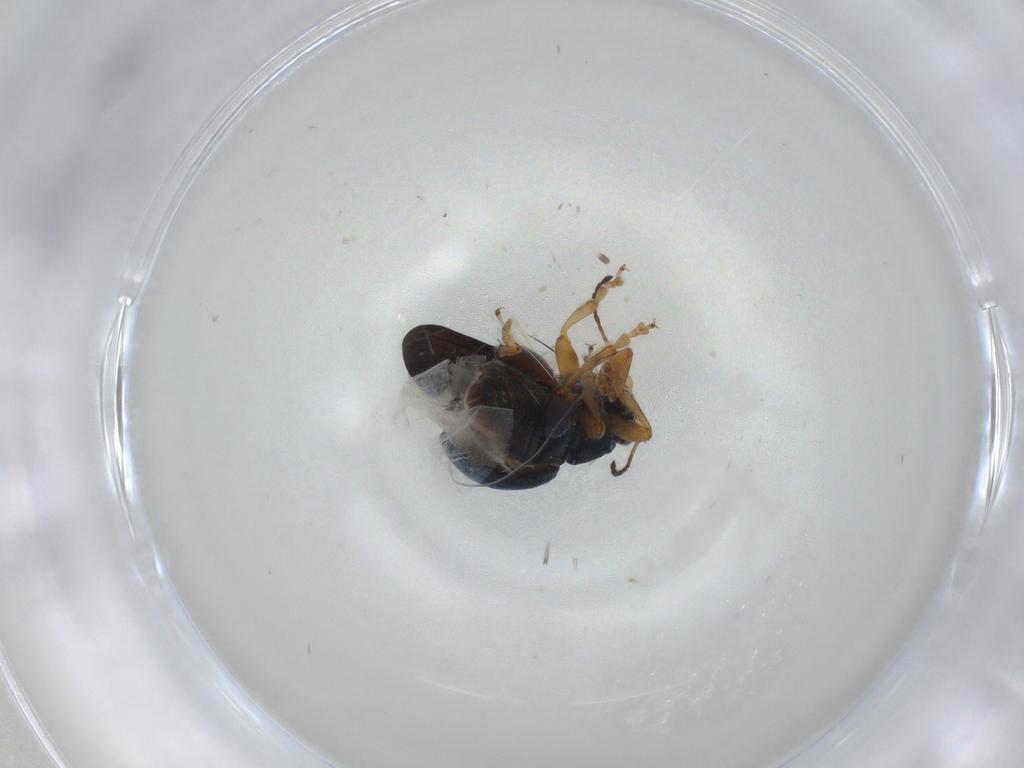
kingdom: Animalia
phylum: Arthropoda
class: Insecta
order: Coleoptera
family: Chrysomelidae
